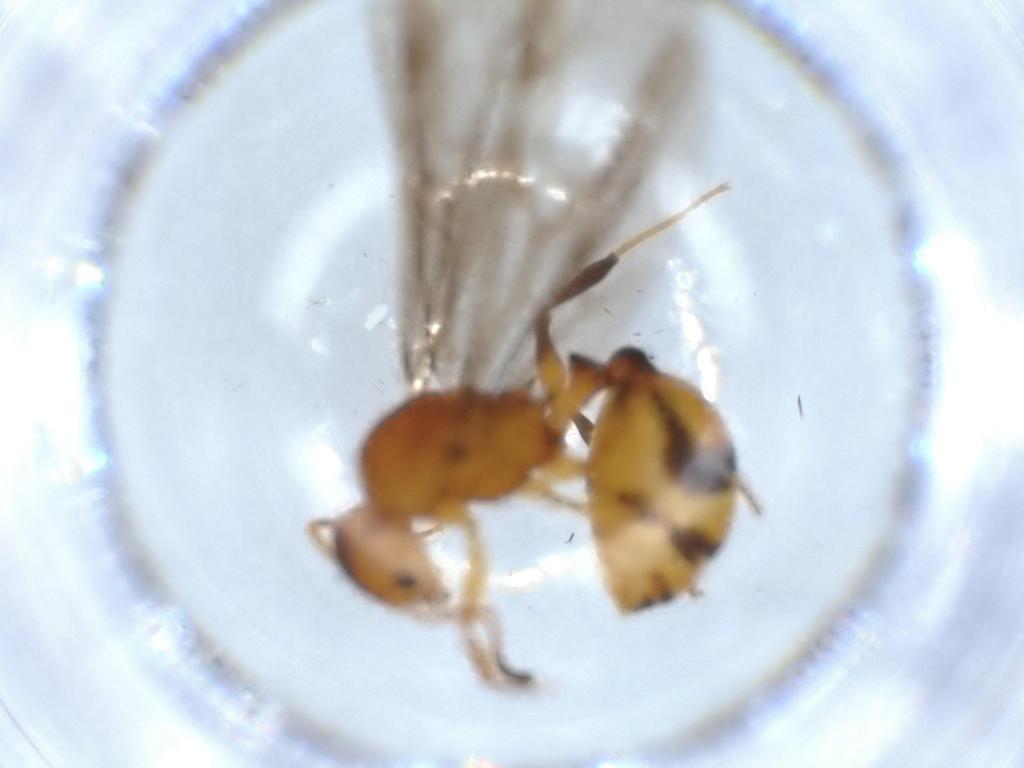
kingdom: Animalia
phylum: Arthropoda
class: Insecta
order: Hymenoptera
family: Formicidae
